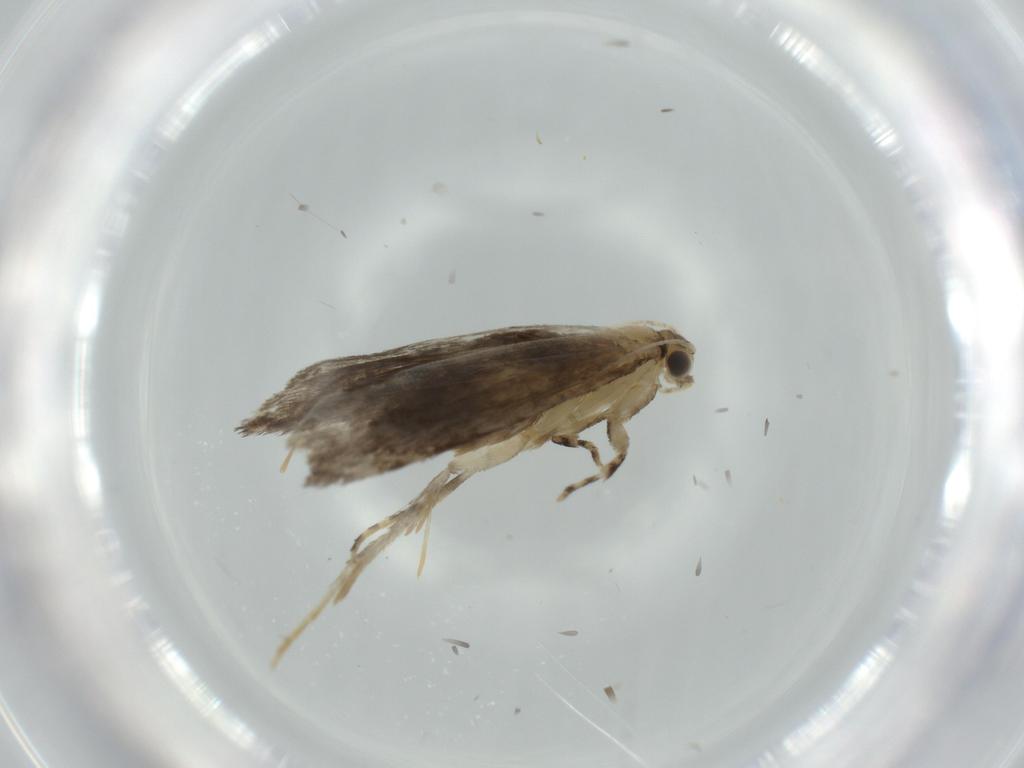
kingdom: Animalia
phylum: Arthropoda
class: Insecta
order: Lepidoptera
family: Tineidae
